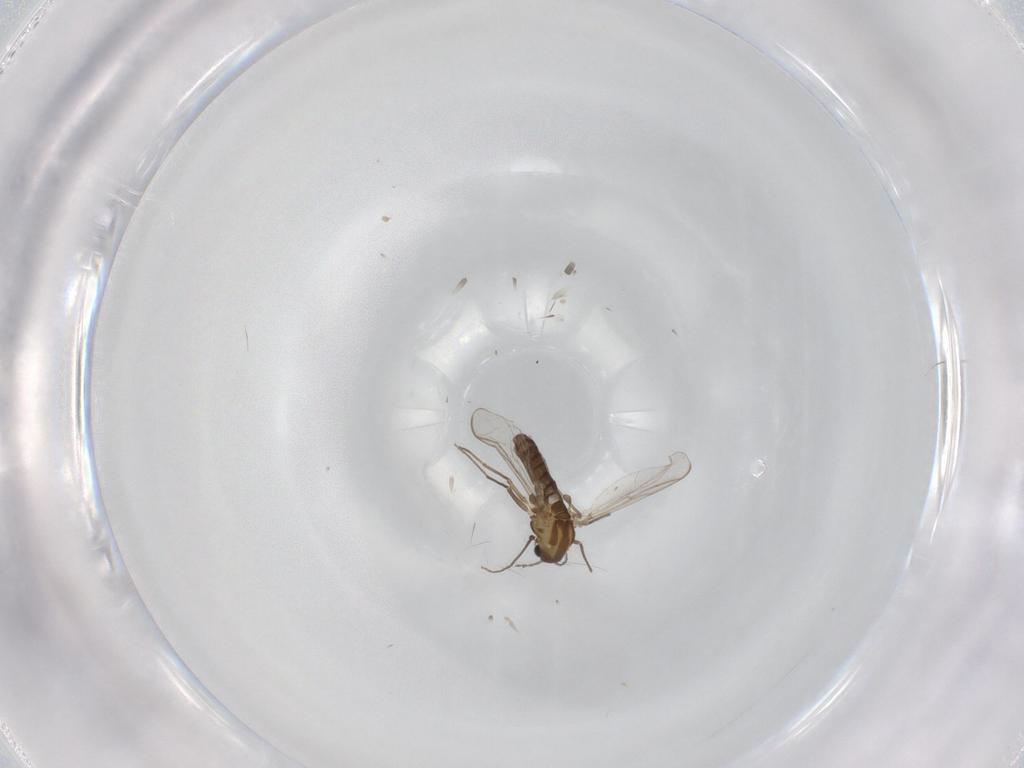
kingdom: Animalia
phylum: Arthropoda
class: Insecta
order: Diptera
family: Chironomidae
